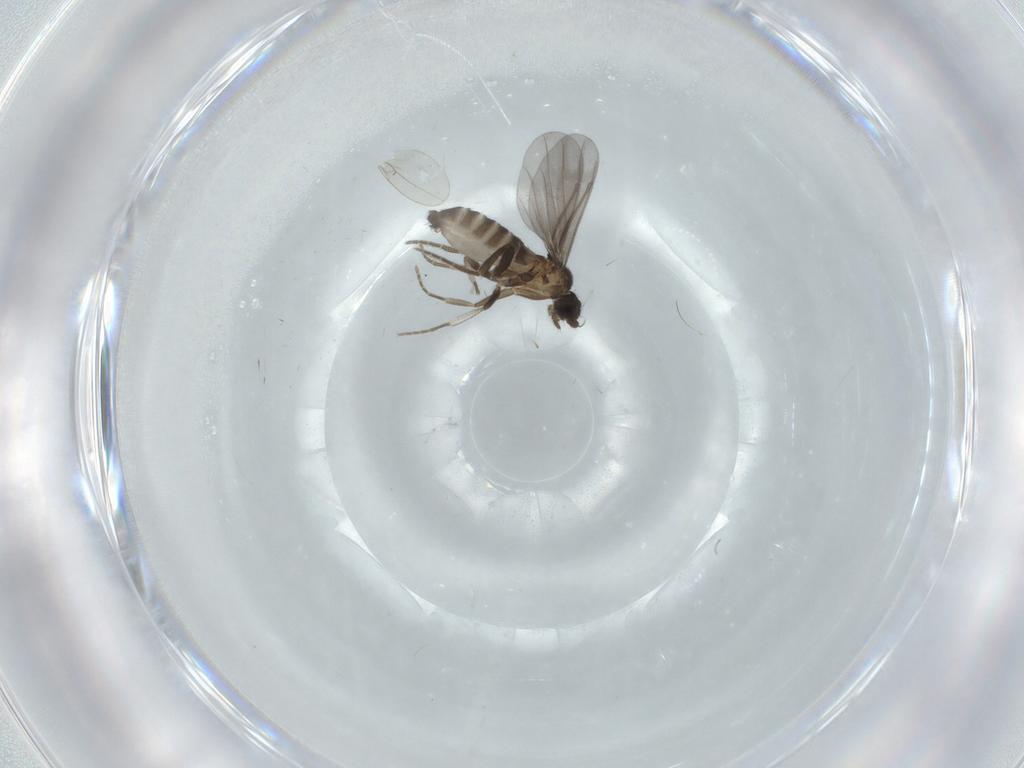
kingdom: Animalia
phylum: Arthropoda
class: Insecta
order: Diptera
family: Phoridae
